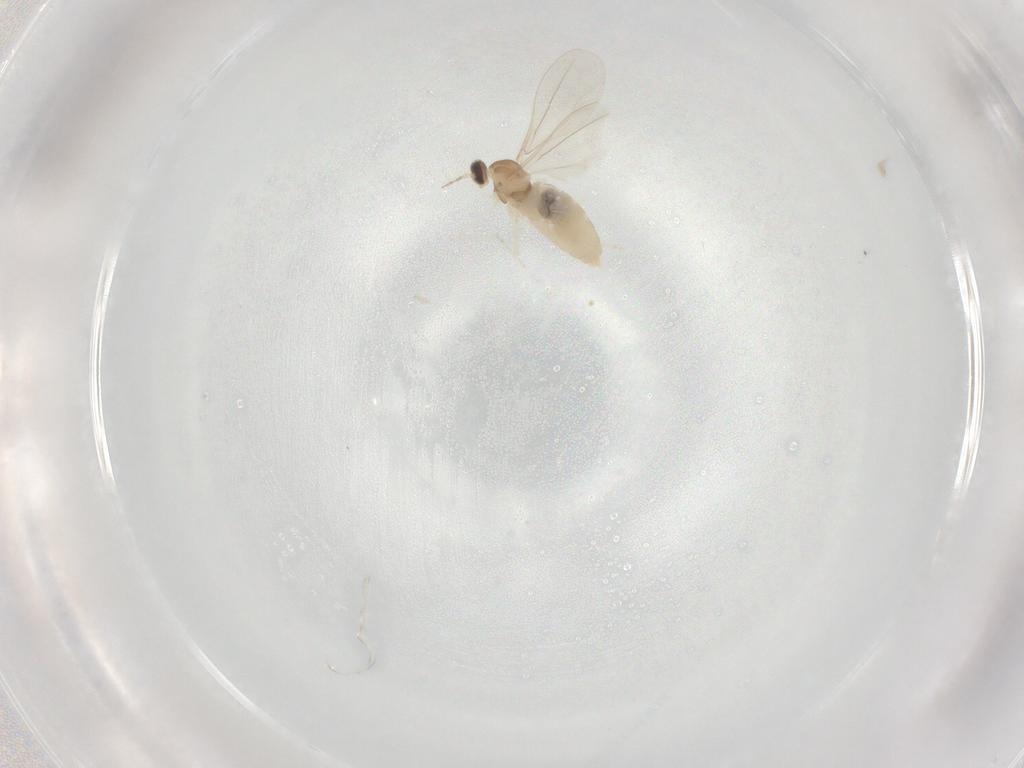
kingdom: Animalia
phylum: Arthropoda
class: Insecta
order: Diptera
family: Cecidomyiidae
